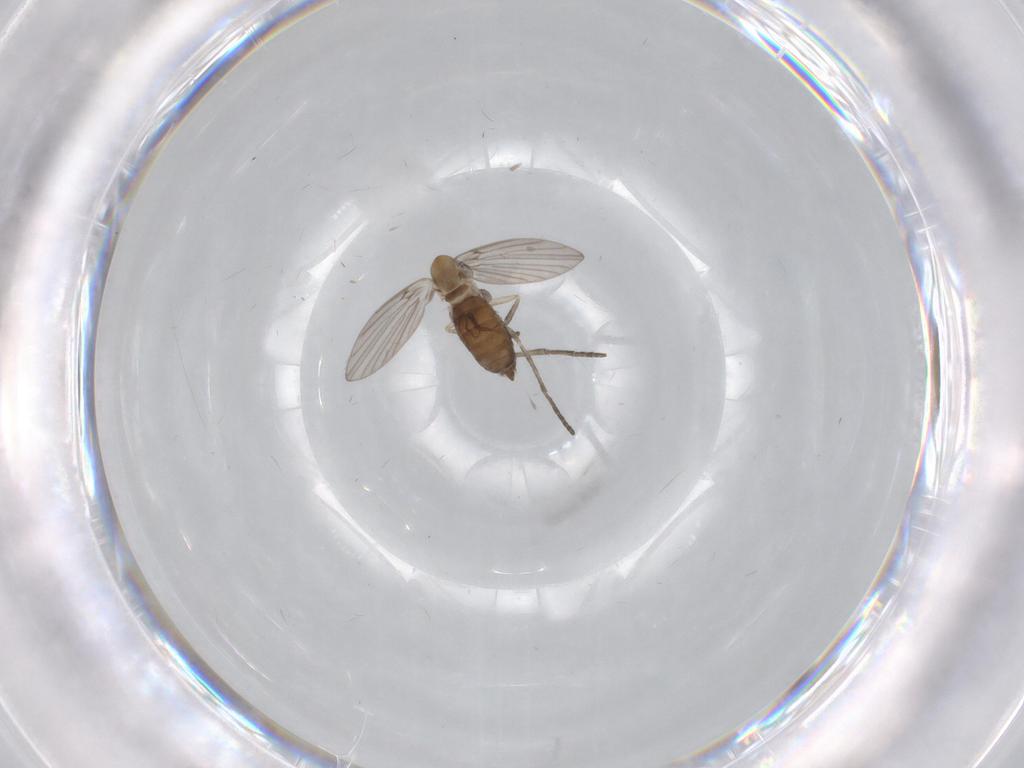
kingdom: Animalia
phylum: Arthropoda
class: Insecta
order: Diptera
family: Psychodidae
